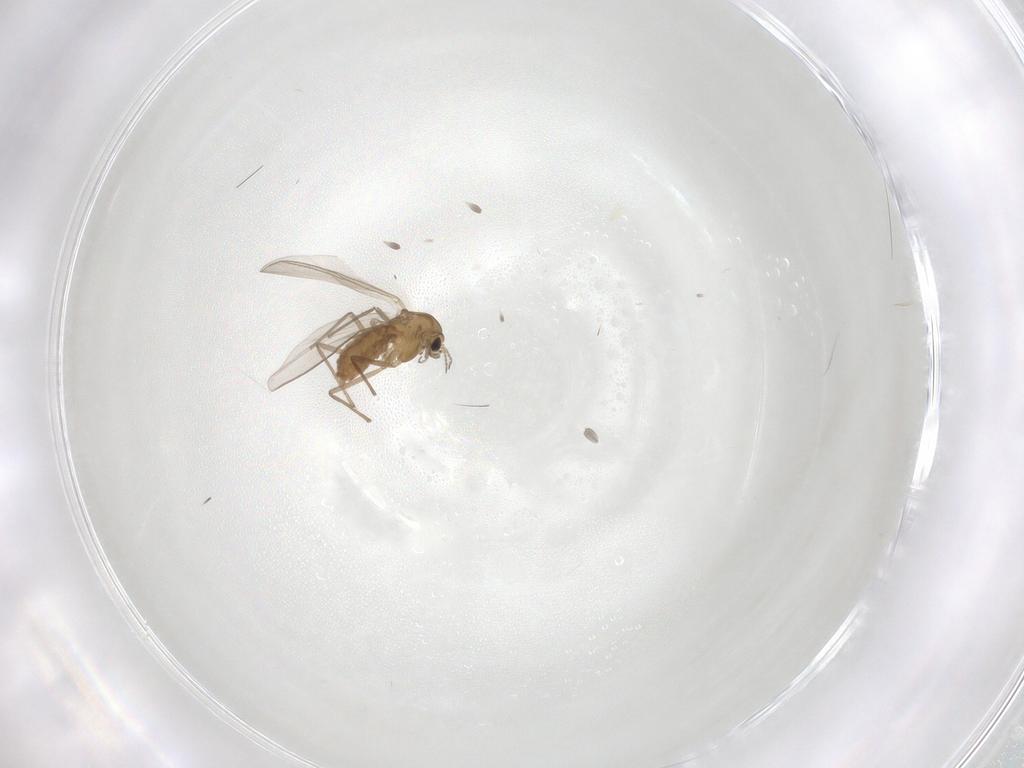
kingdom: Animalia
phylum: Arthropoda
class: Insecta
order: Diptera
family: Chironomidae
